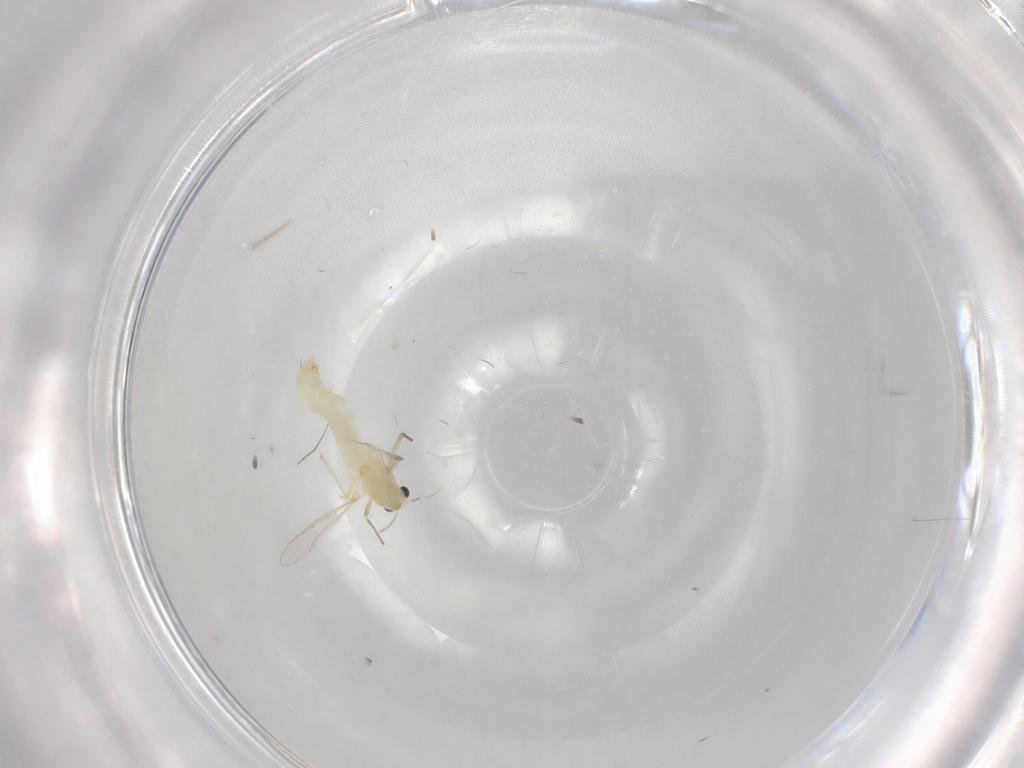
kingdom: Animalia
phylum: Arthropoda
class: Insecta
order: Diptera
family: Chironomidae
